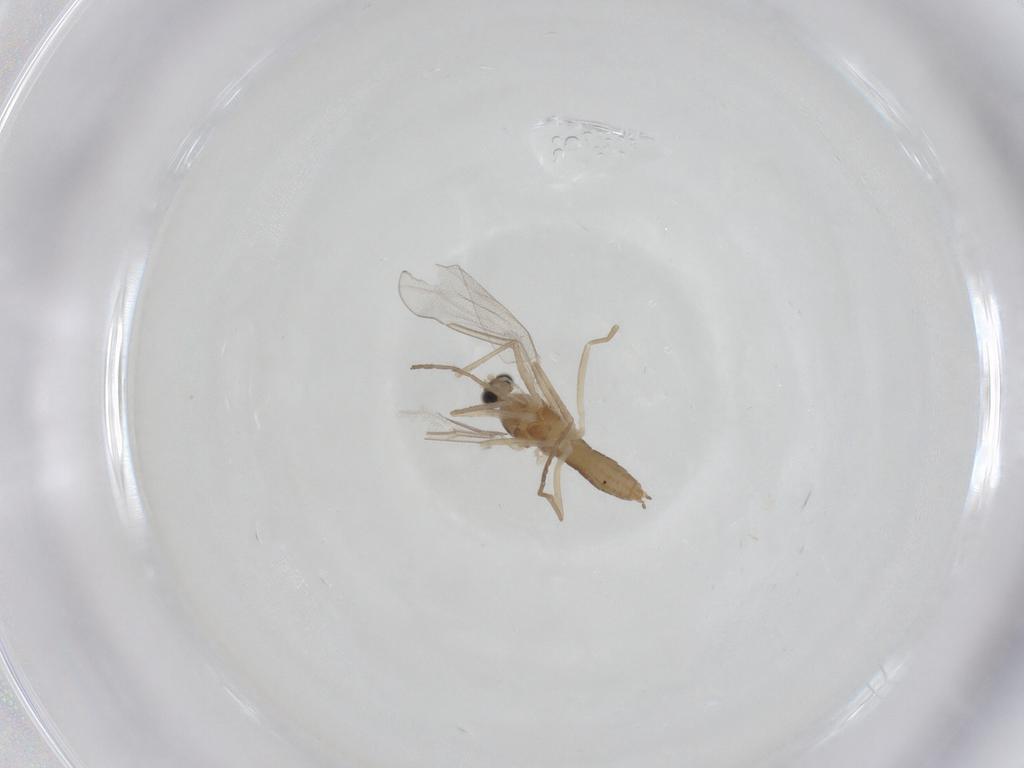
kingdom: Animalia
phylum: Arthropoda
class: Insecta
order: Diptera
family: Cecidomyiidae
